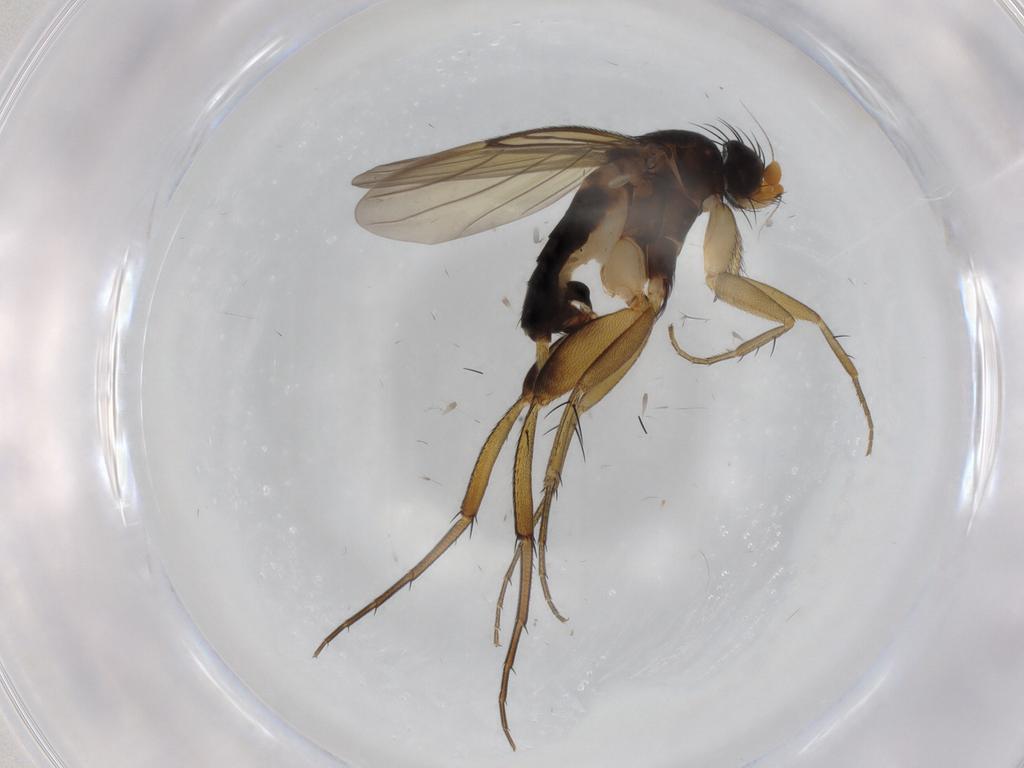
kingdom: Animalia
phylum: Arthropoda
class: Insecta
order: Diptera
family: Phoridae
